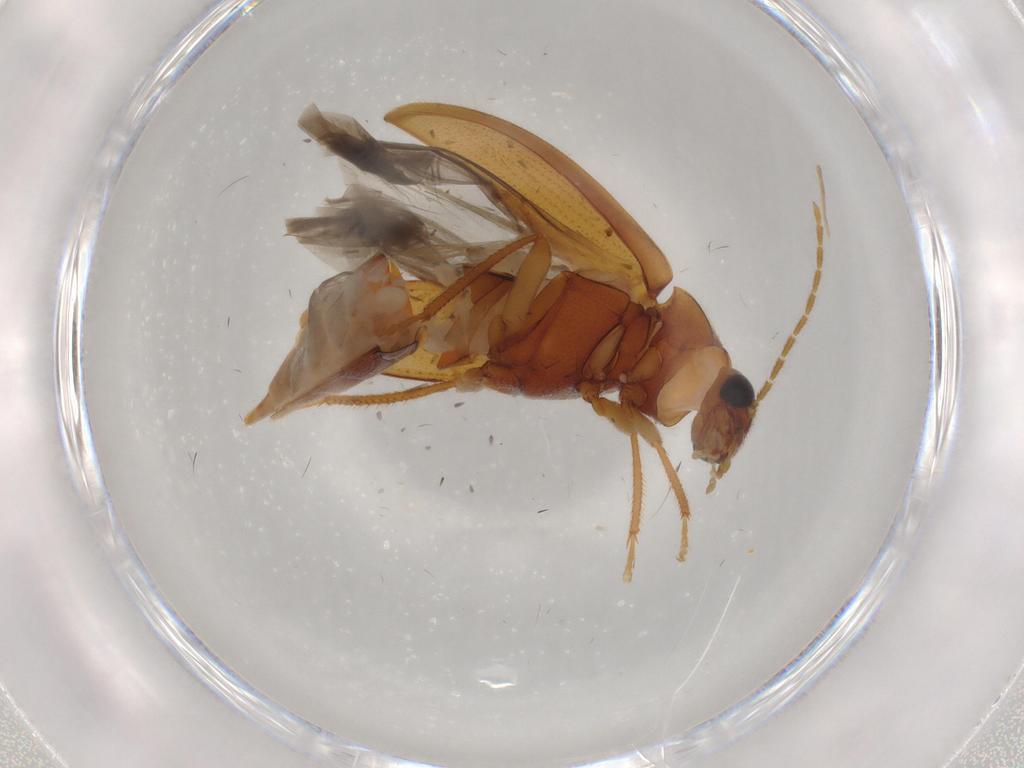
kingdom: Animalia
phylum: Arthropoda
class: Insecta
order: Coleoptera
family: Ptilodactylidae
